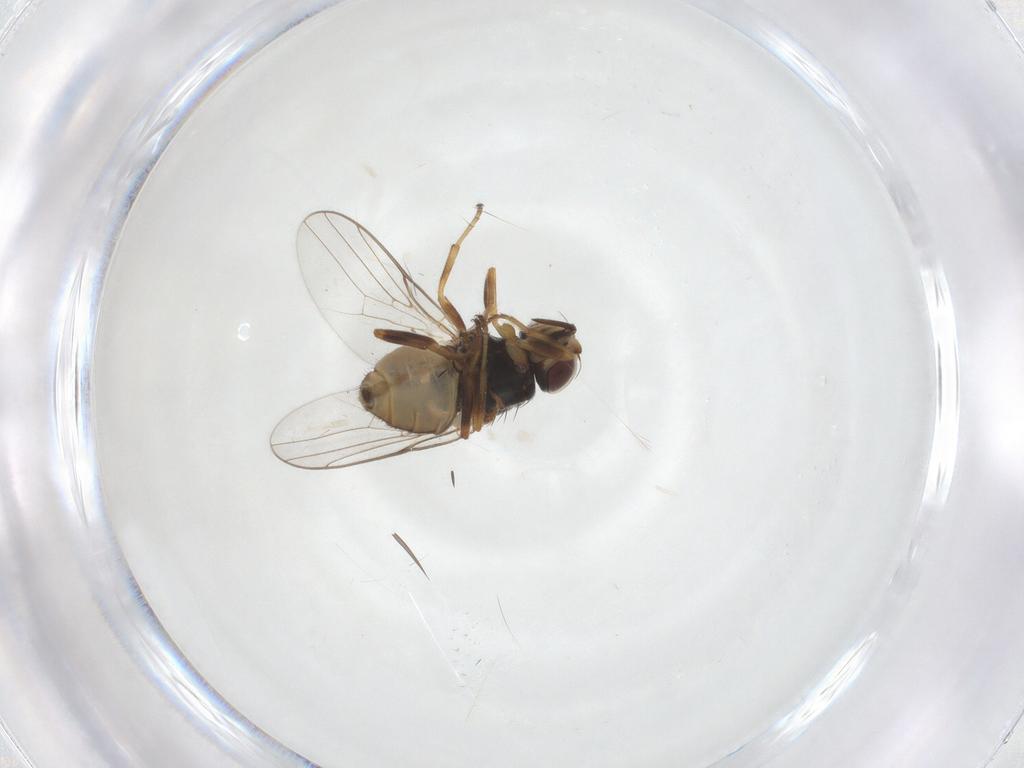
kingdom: Animalia
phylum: Arthropoda
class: Insecta
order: Diptera
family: Chloropidae
